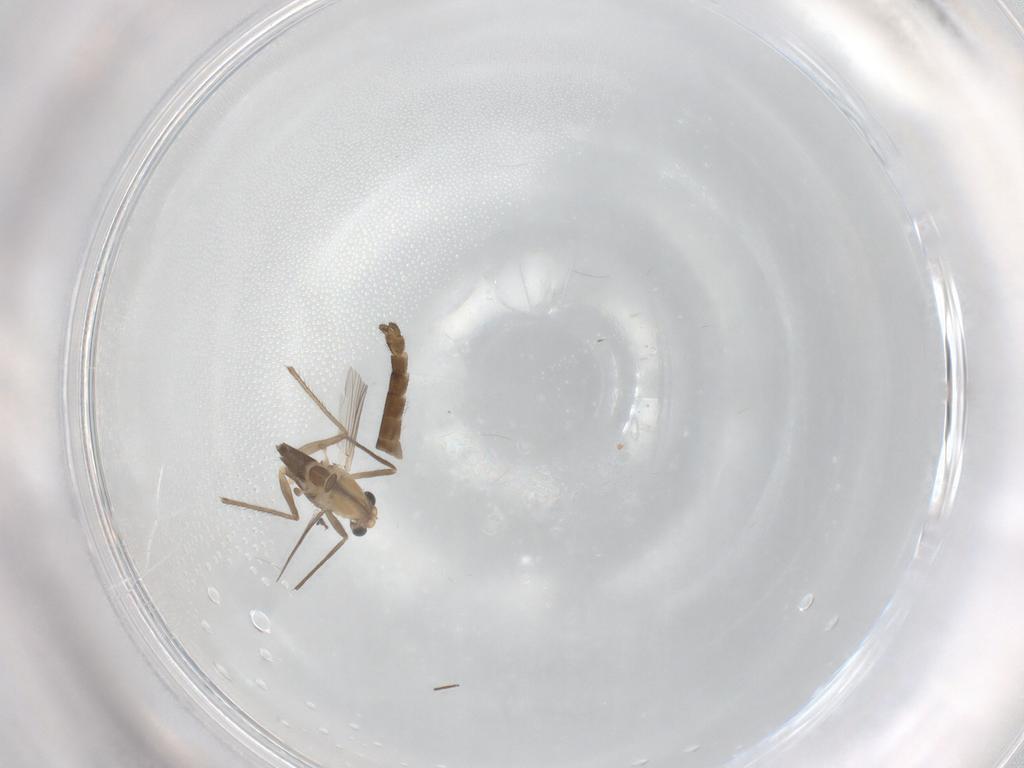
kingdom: Animalia
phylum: Arthropoda
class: Insecta
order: Diptera
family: Chironomidae
